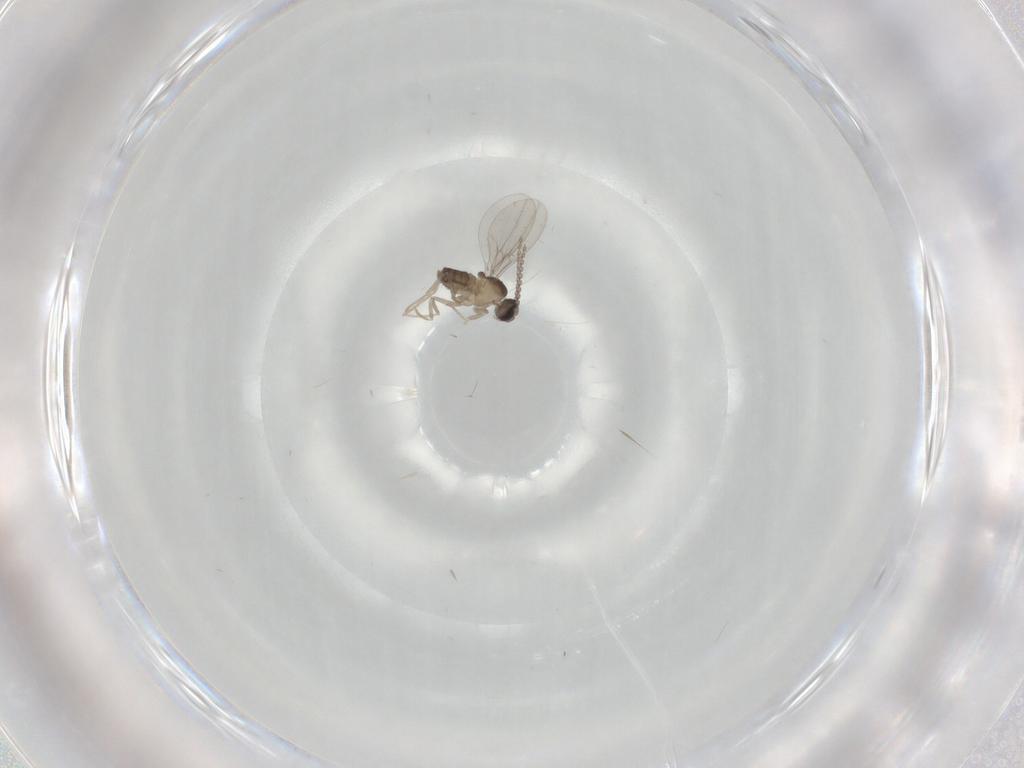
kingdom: Animalia
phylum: Arthropoda
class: Insecta
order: Diptera
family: Cecidomyiidae
